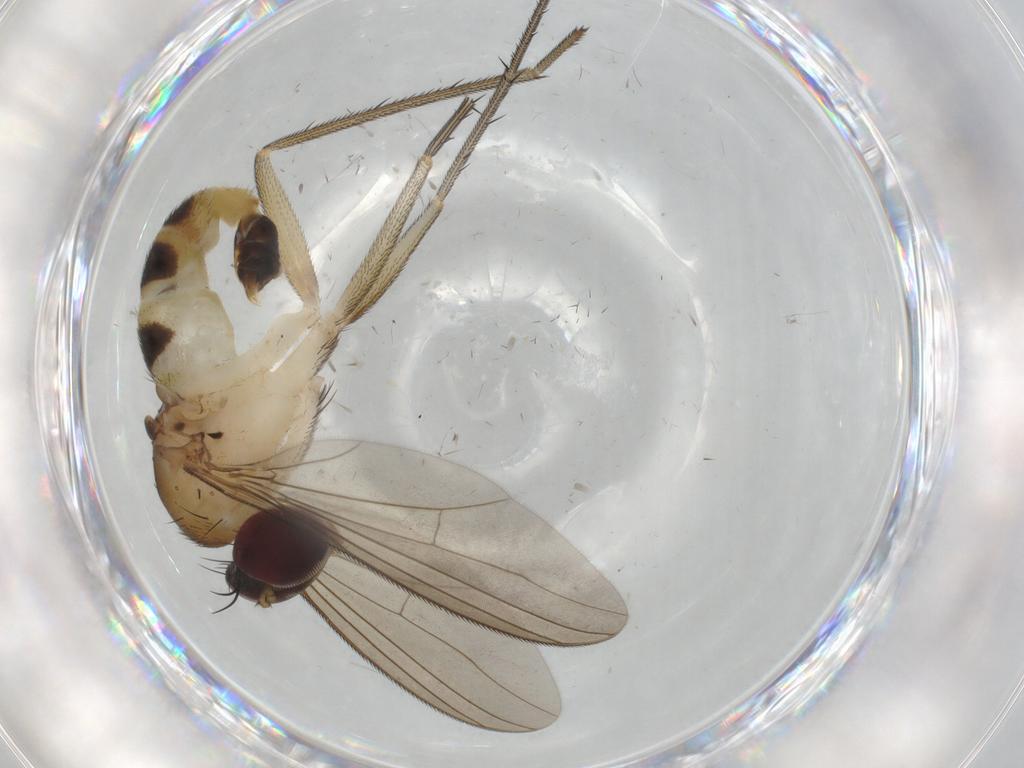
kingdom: Animalia
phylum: Arthropoda
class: Insecta
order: Diptera
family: Dolichopodidae
